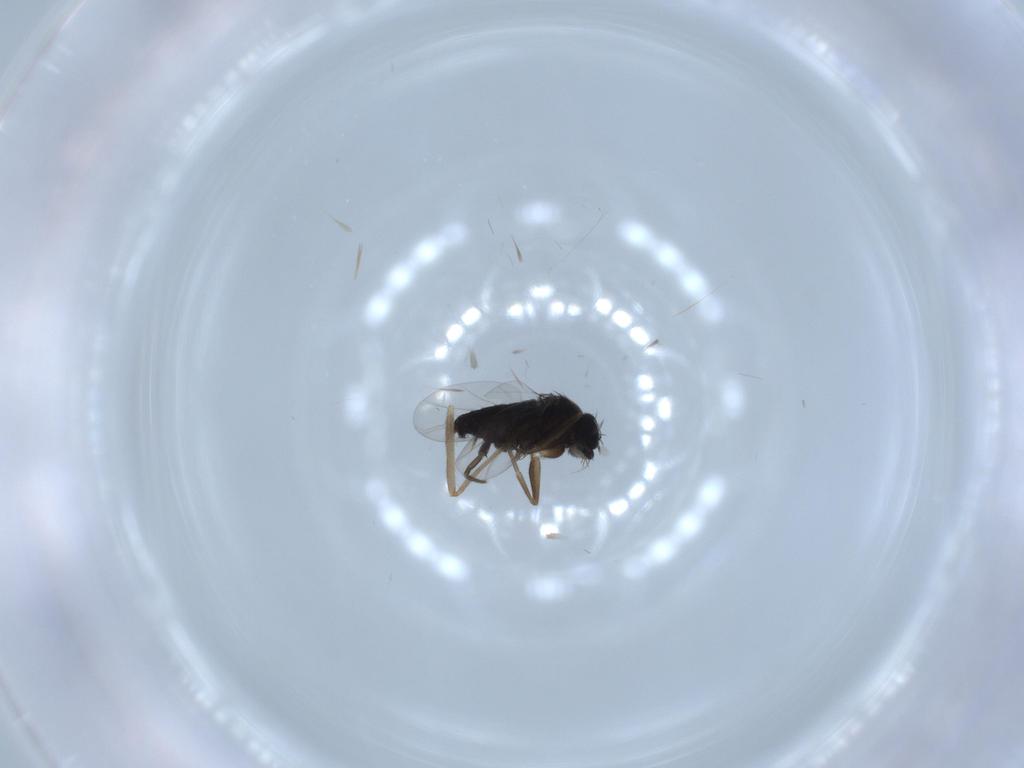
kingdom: Animalia
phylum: Arthropoda
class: Insecta
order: Diptera
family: Phoridae
